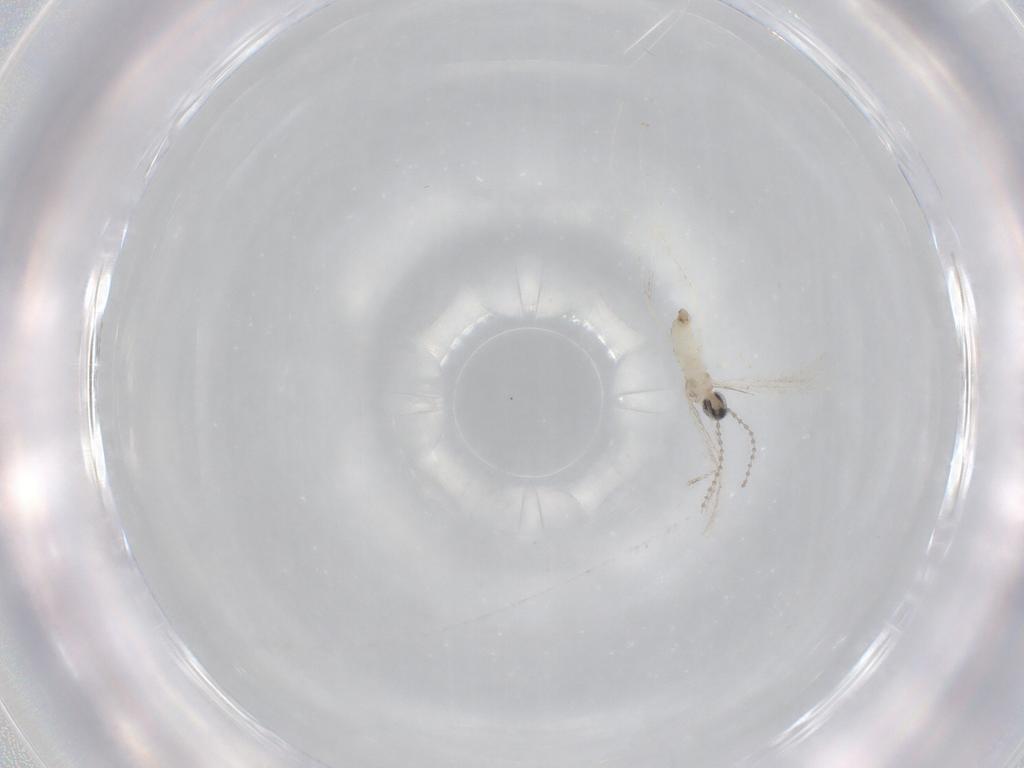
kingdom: Animalia
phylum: Arthropoda
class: Insecta
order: Diptera
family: Cecidomyiidae
